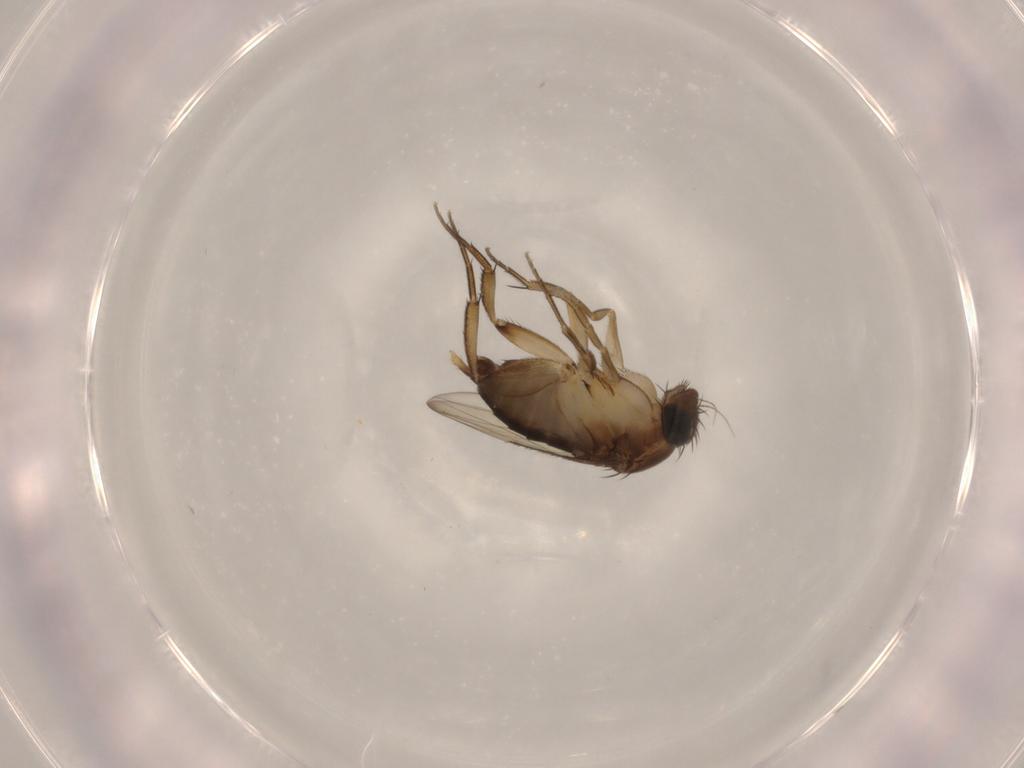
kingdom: Animalia
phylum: Arthropoda
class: Insecta
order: Diptera
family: Phoridae
